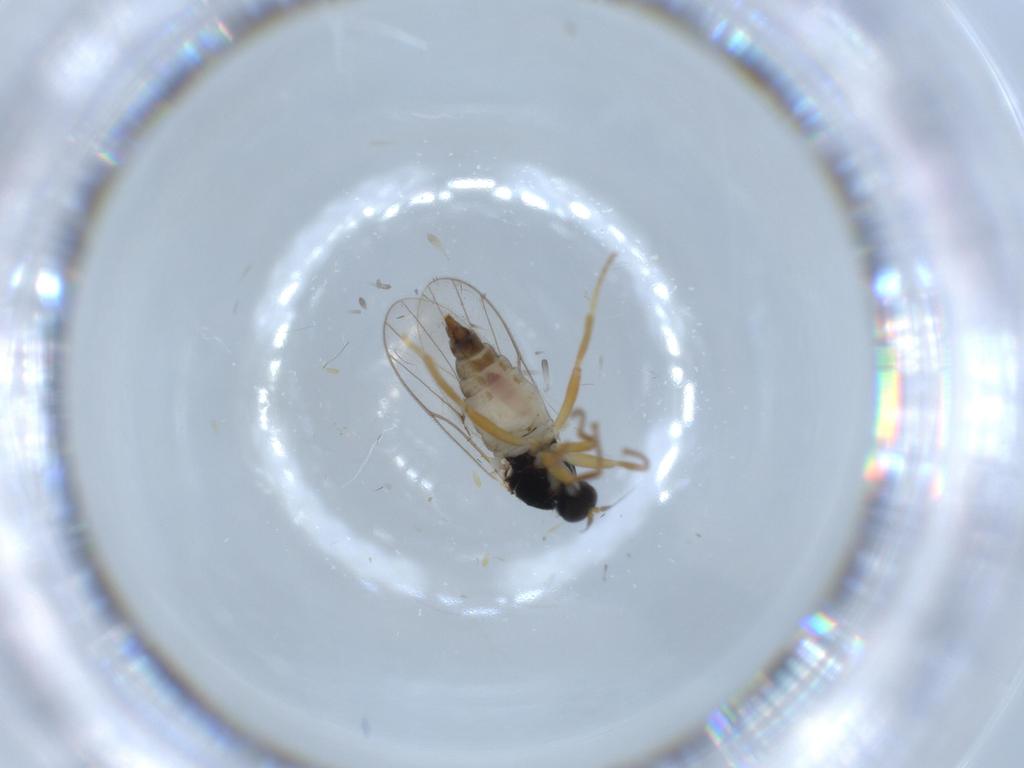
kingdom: Animalia
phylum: Arthropoda
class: Insecta
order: Diptera
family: Hybotidae
